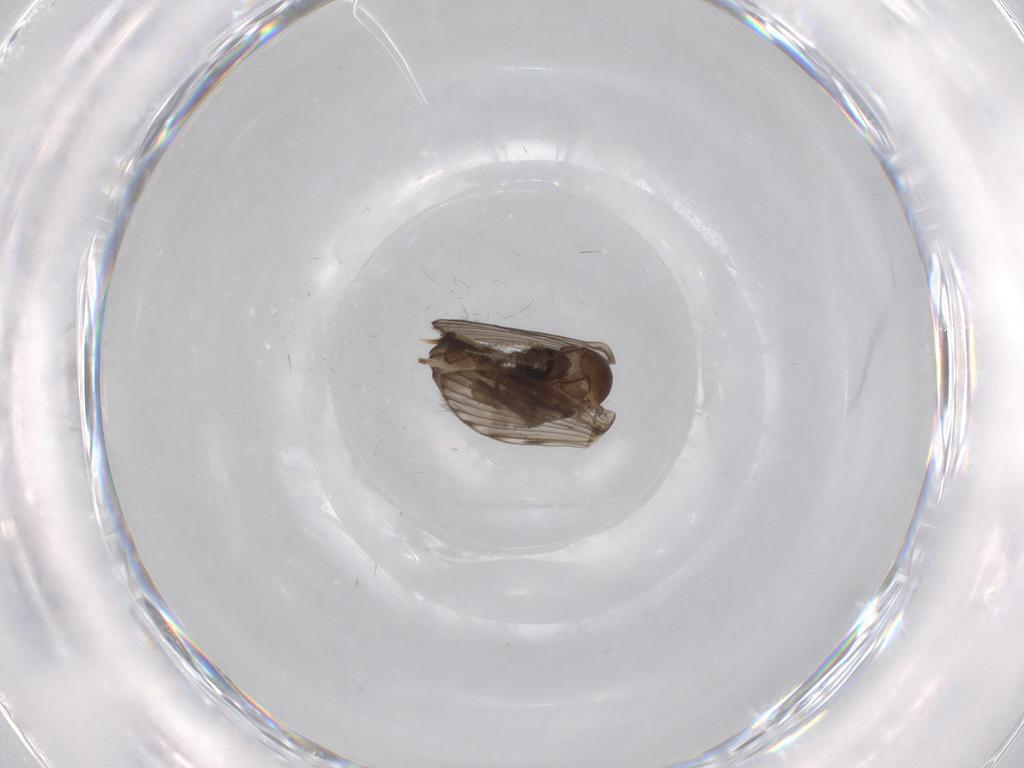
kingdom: Animalia
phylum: Arthropoda
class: Insecta
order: Diptera
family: Psychodidae
